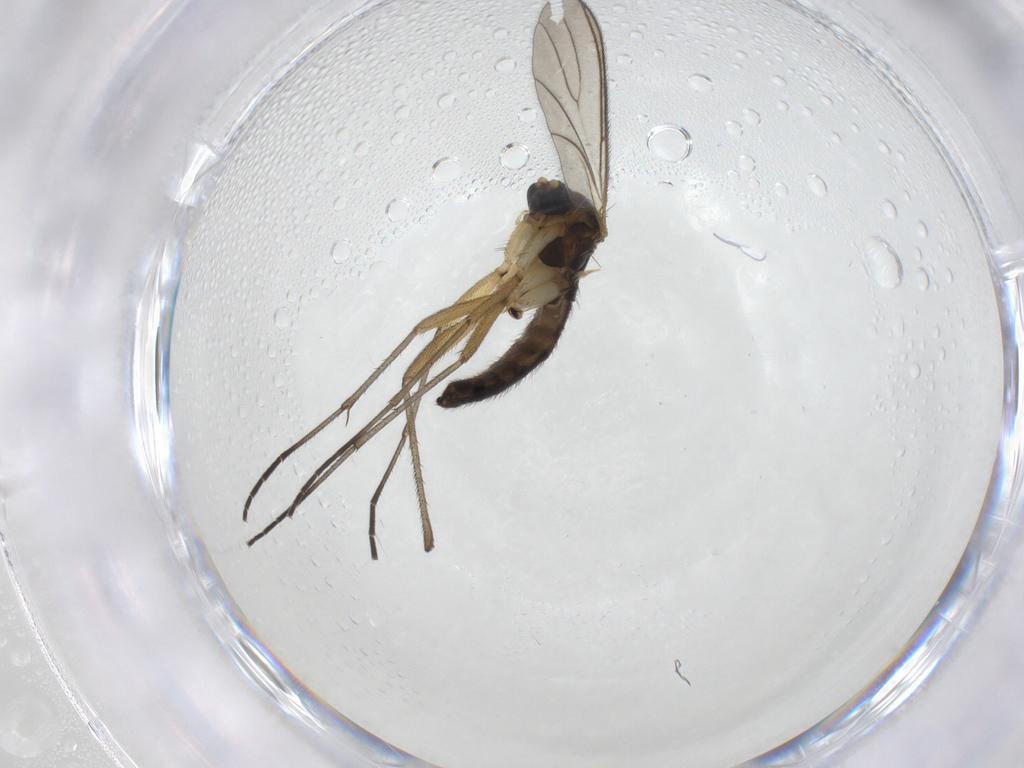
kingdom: Animalia
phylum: Arthropoda
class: Insecta
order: Diptera
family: Sciaridae
